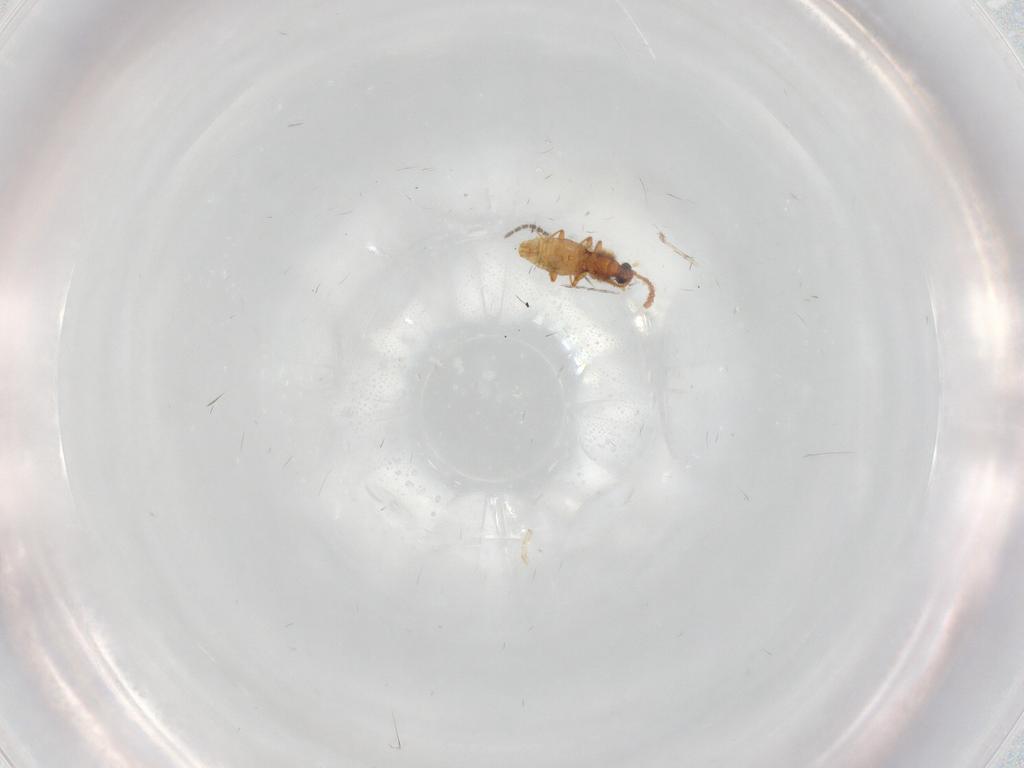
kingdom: Animalia
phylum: Arthropoda
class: Insecta
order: Coleoptera
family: Staphylinidae
